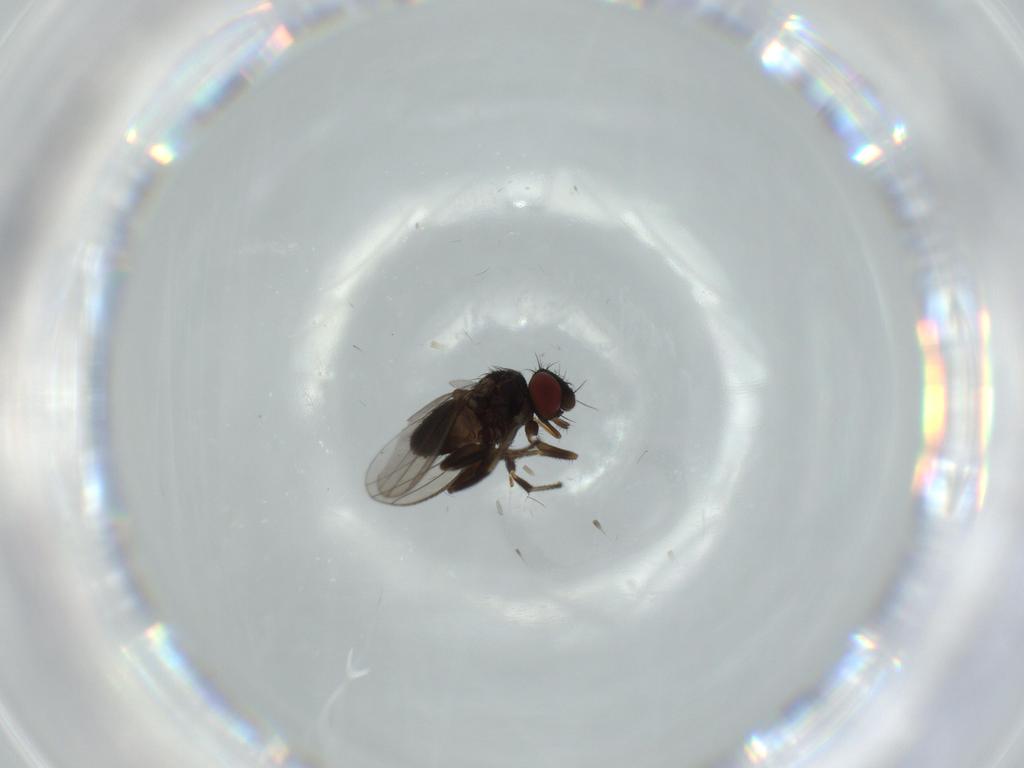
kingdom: Animalia
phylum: Arthropoda
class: Insecta
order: Diptera
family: Milichiidae
